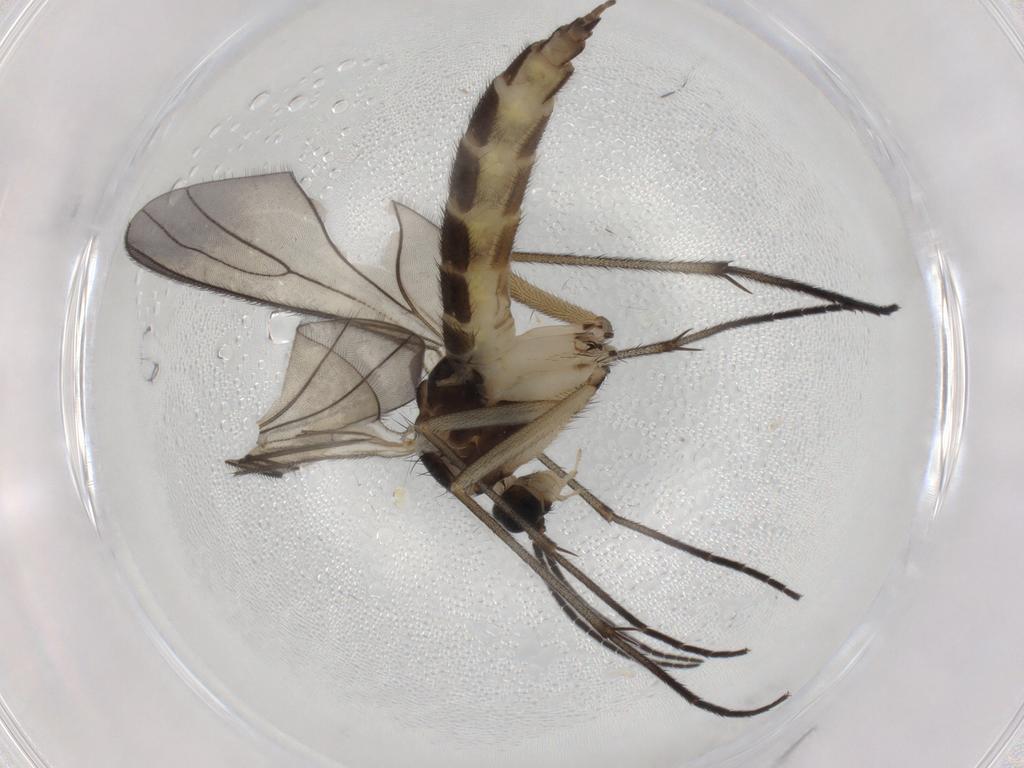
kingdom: Animalia
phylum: Arthropoda
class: Insecta
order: Diptera
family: Sciaridae
